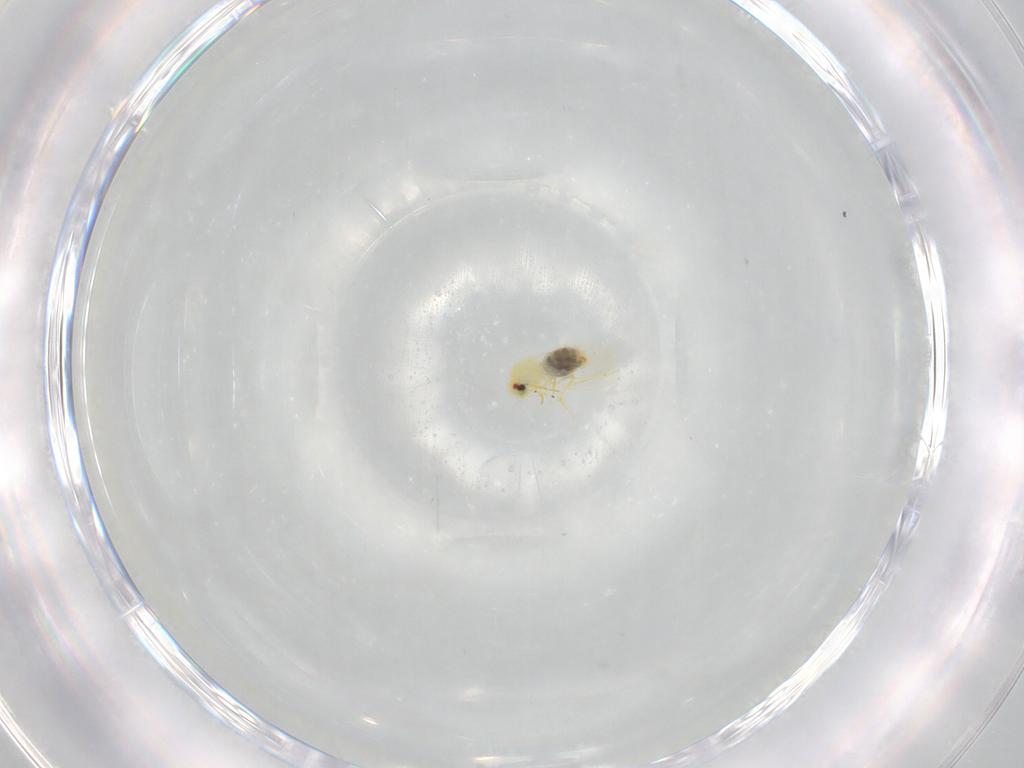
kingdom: Animalia
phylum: Arthropoda
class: Insecta
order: Hemiptera
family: Aleyrodidae
